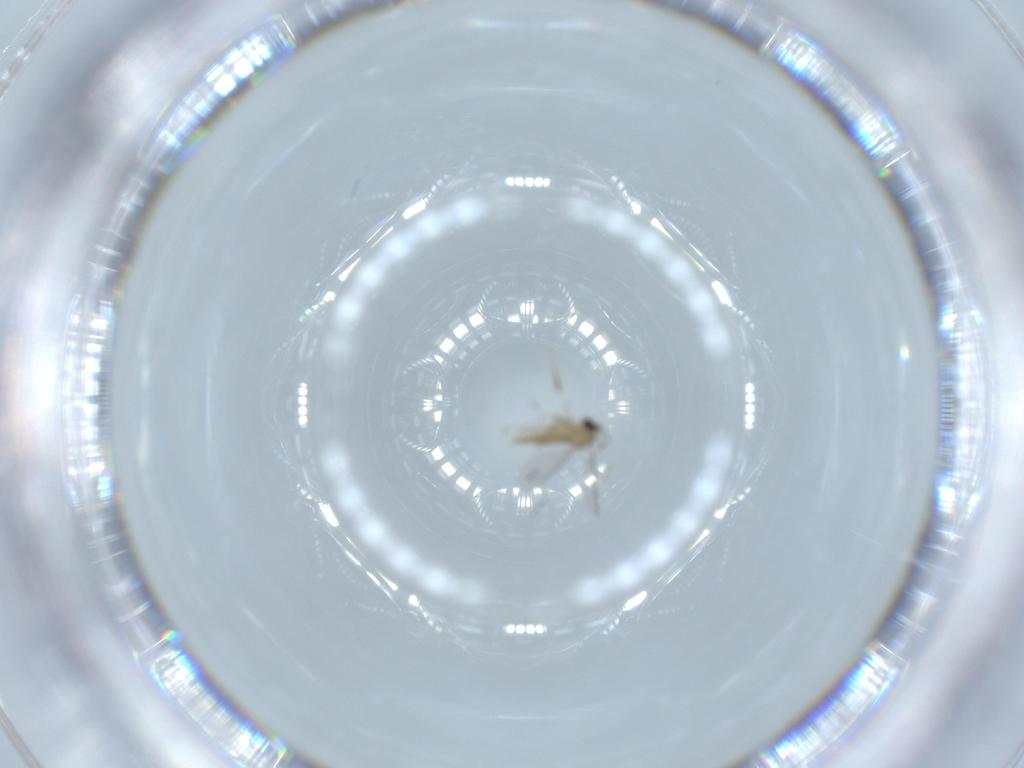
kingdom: Animalia
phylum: Arthropoda
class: Insecta
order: Diptera
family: Cecidomyiidae
